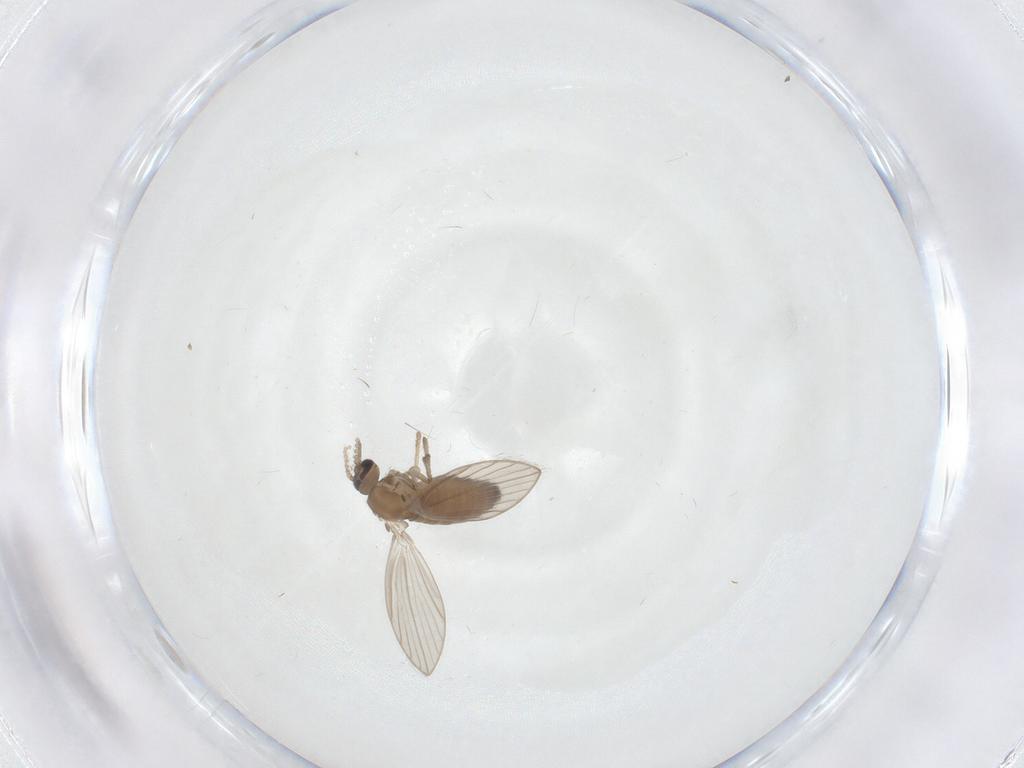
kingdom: Animalia
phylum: Arthropoda
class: Insecta
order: Diptera
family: Psychodidae
